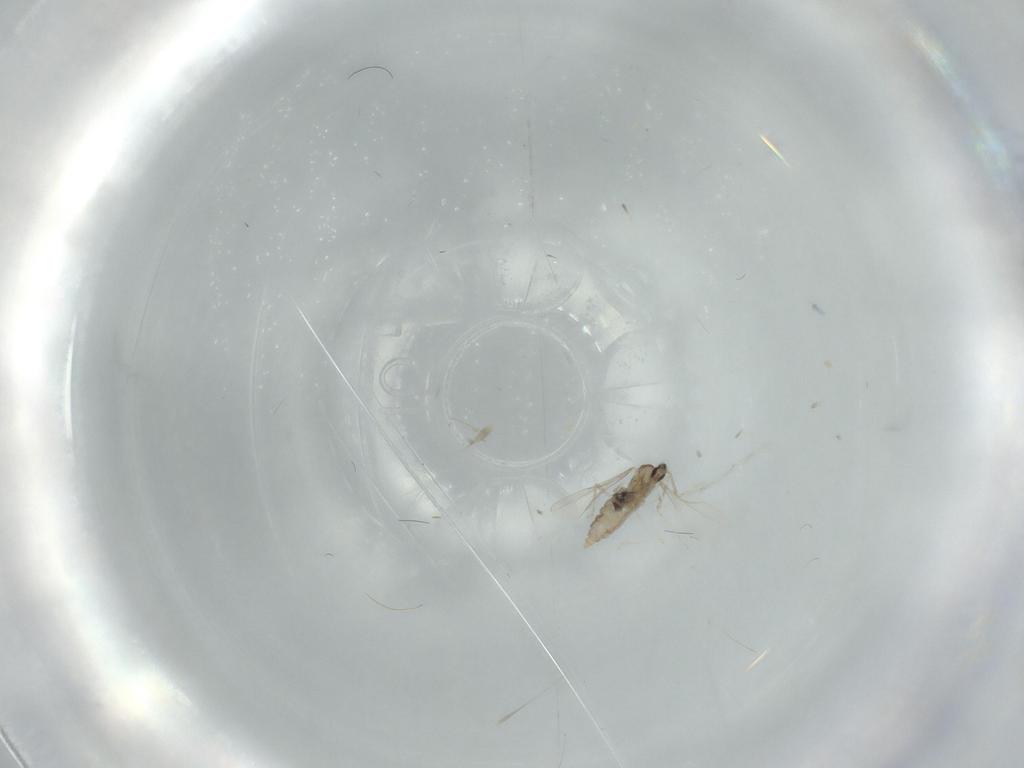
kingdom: Animalia
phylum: Arthropoda
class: Insecta
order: Diptera
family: Cecidomyiidae
